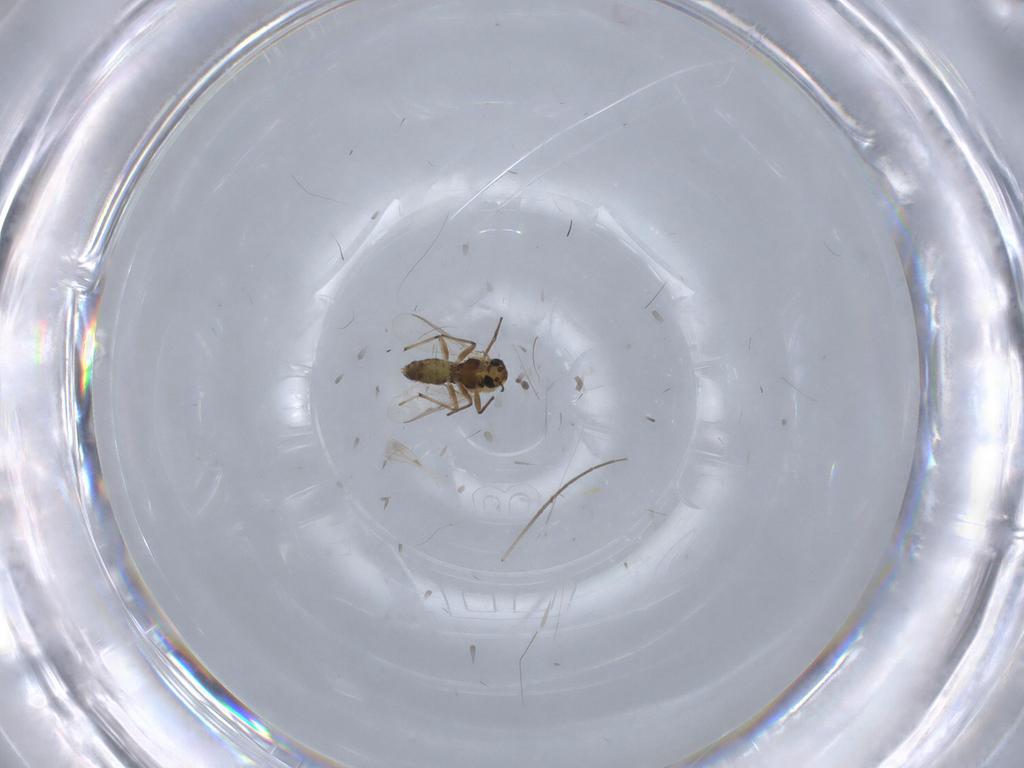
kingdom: Animalia
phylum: Arthropoda
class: Insecta
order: Diptera
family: Chironomidae
